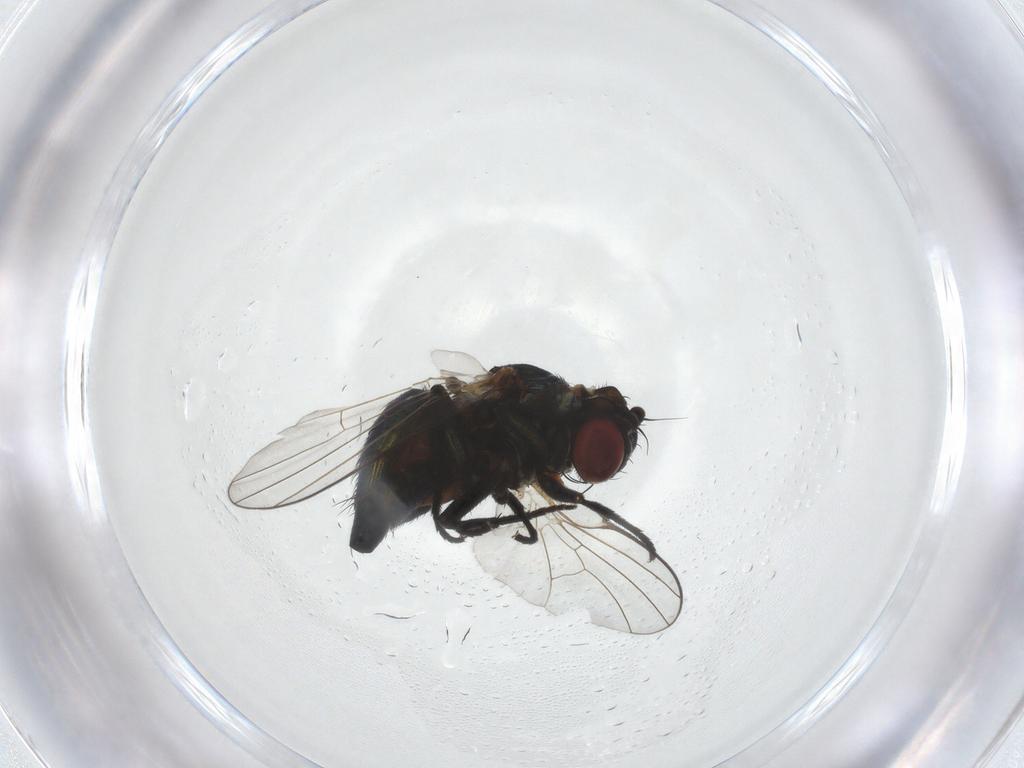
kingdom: Animalia
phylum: Arthropoda
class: Insecta
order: Diptera
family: Agromyzidae
